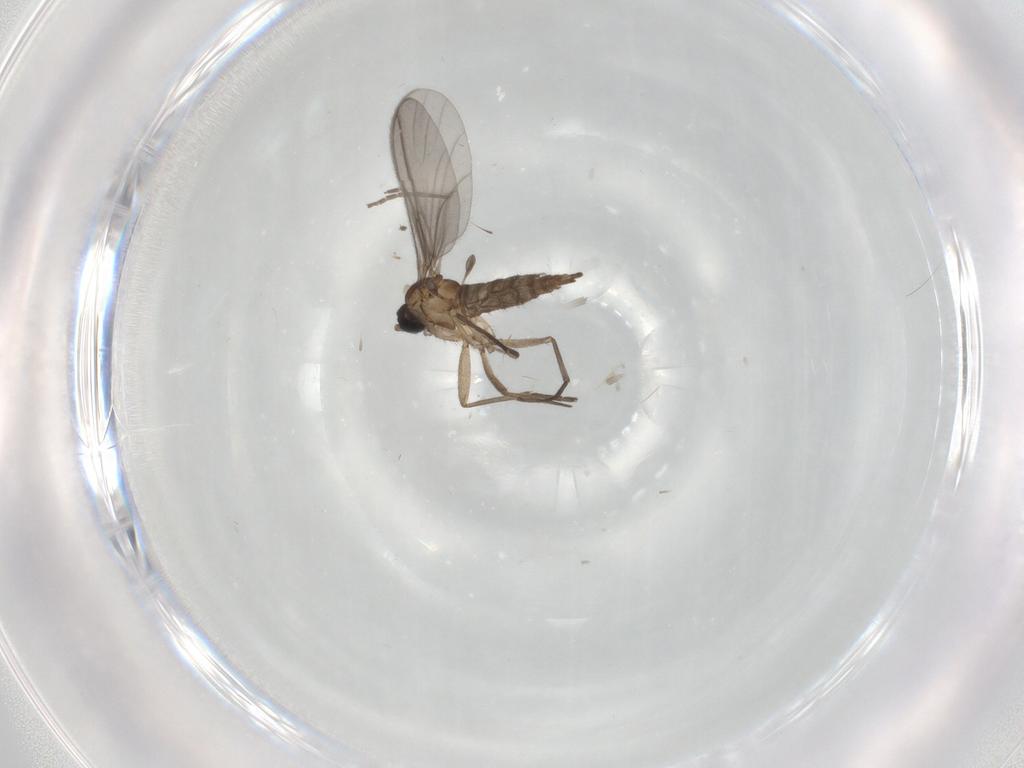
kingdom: Animalia
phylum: Arthropoda
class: Insecta
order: Diptera
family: Sciaridae
